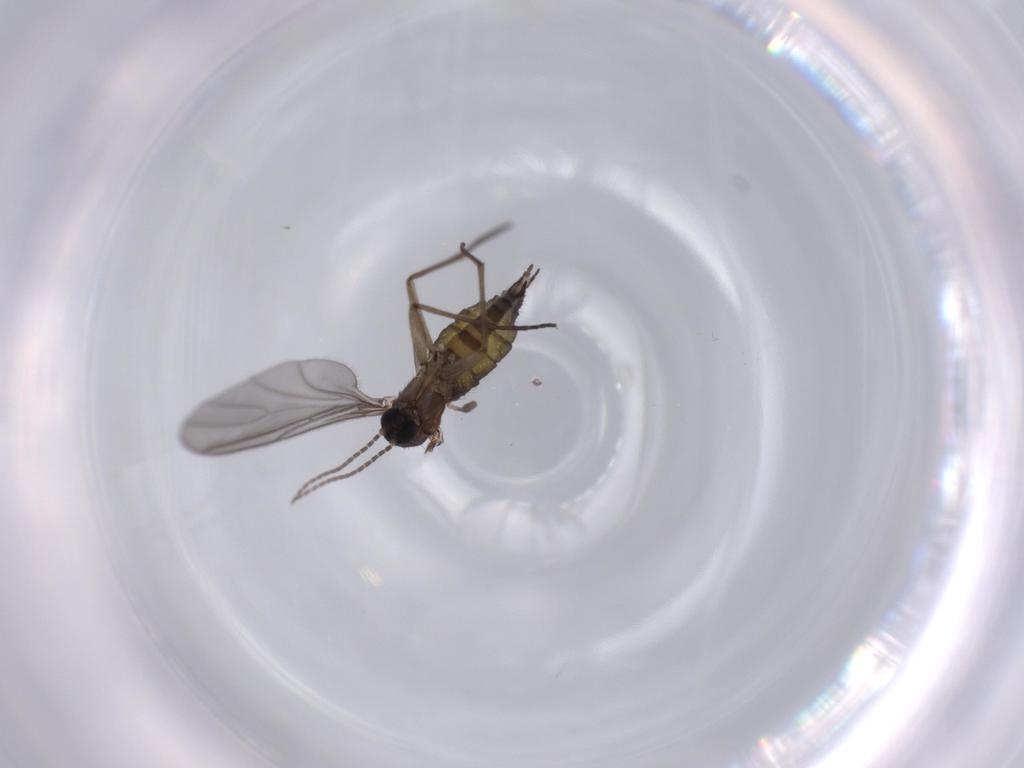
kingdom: Animalia
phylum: Arthropoda
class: Insecta
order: Diptera
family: Sciaridae
